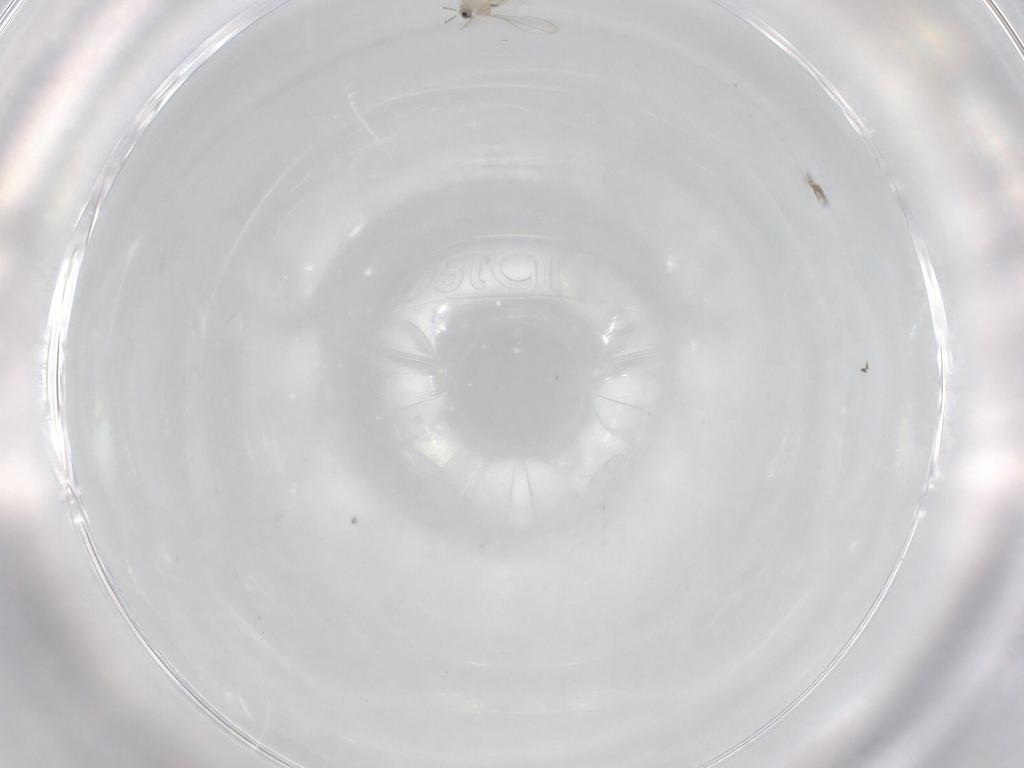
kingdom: Animalia
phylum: Arthropoda
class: Insecta
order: Diptera
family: Cecidomyiidae
